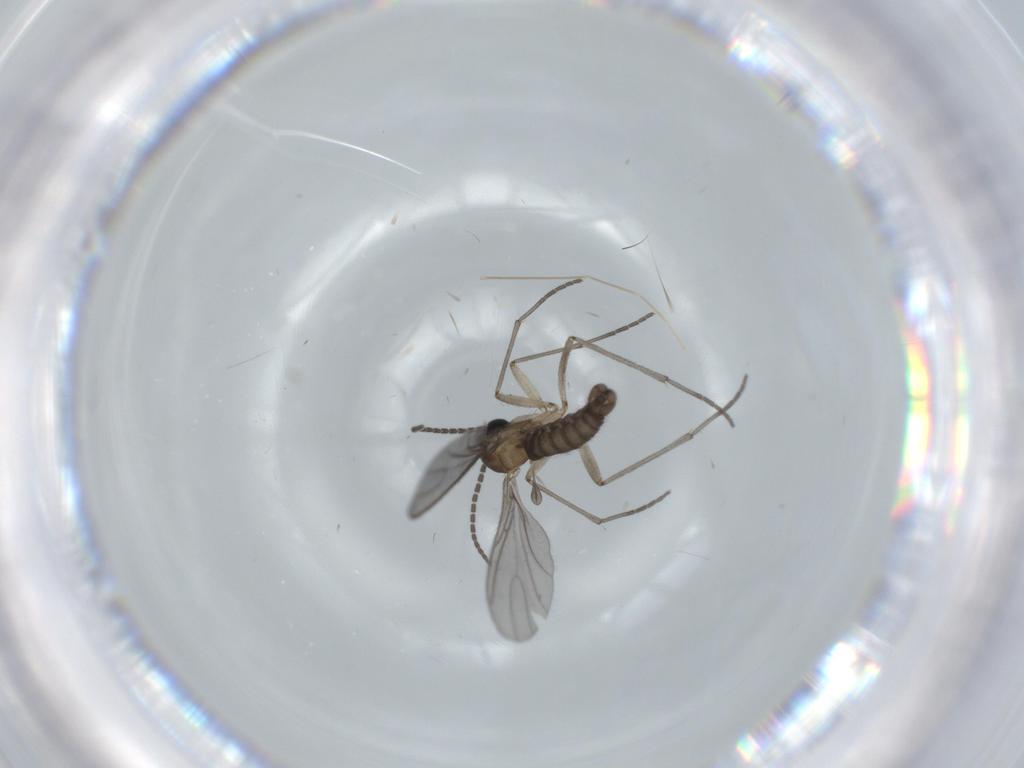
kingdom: Animalia
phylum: Arthropoda
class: Insecta
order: Diptera
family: Sciaridae
